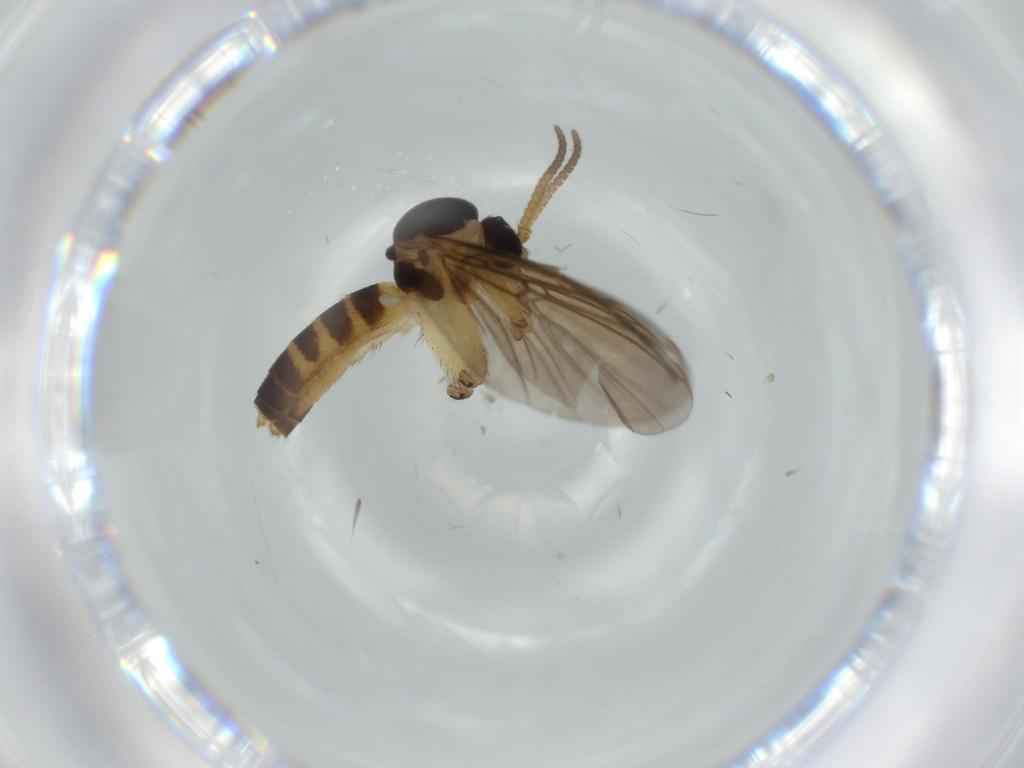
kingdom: Animalia
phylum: Arthropoda
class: Insecta
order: Diptera
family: Mycetophilidae
